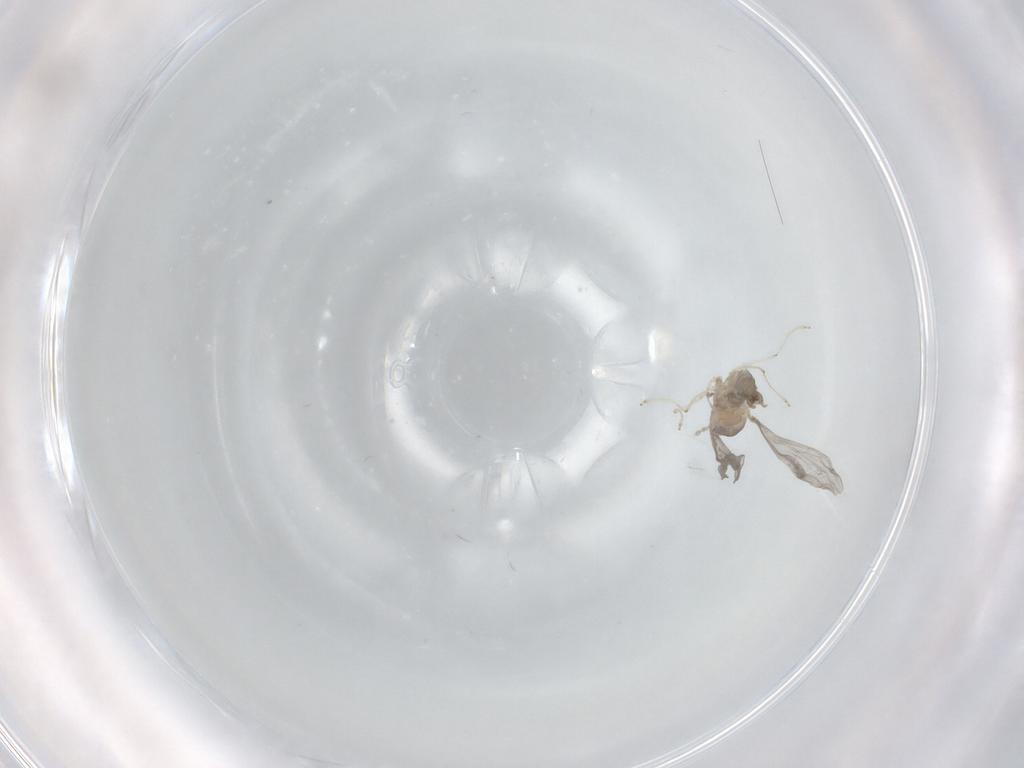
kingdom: Animalia
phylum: Arthropoda
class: Insecta
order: Diptera
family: Cecidomyiidae
